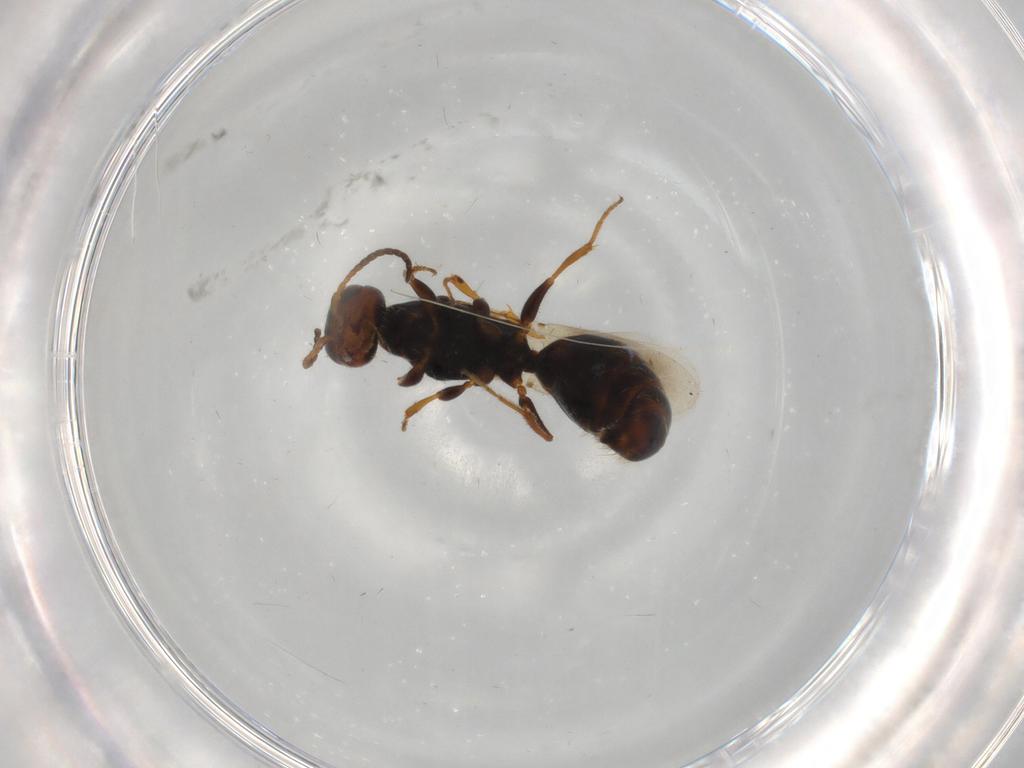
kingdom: Animalia
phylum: Arthropoda
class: Insecta
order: Hymenoptera
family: Bethylidae
